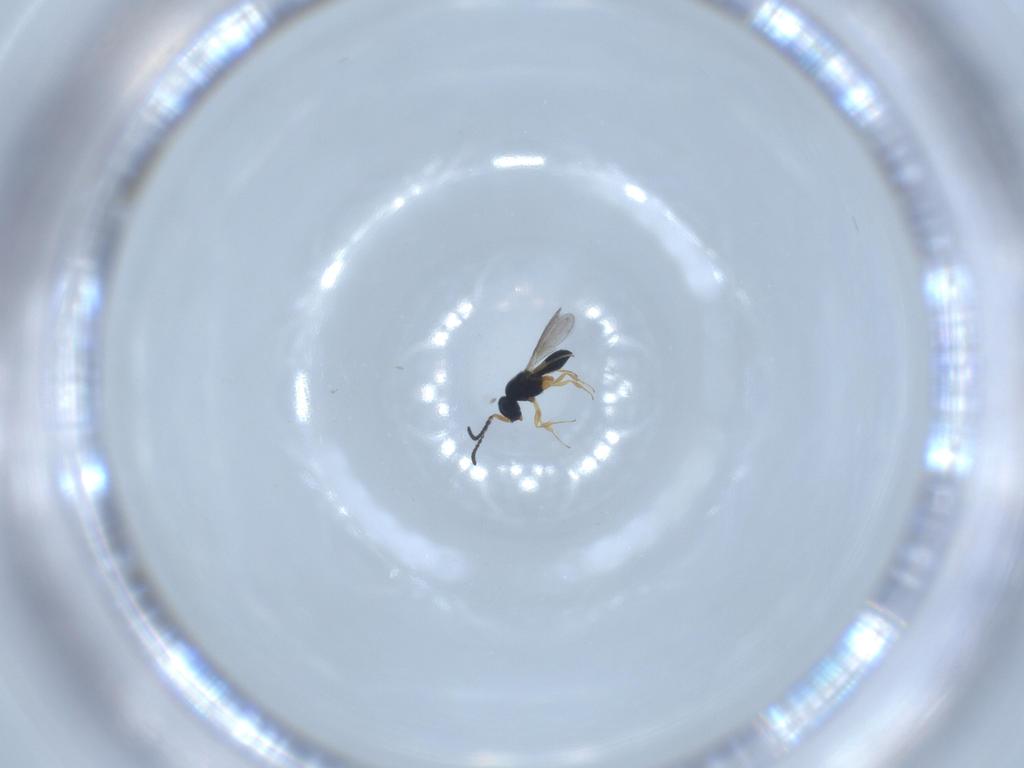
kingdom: Animalia
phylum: Arthropoda
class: Insecta
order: Hymenoptera
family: Scelionidae
